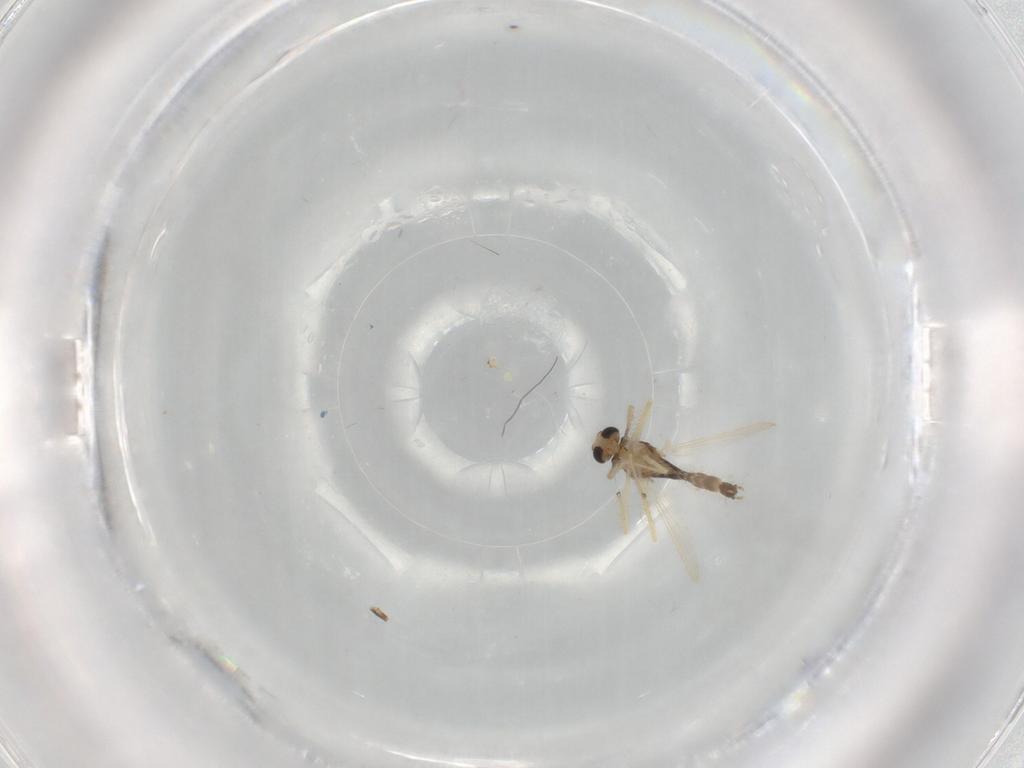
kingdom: Animalia
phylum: Arthropoda
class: Insecta
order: Diptera
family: Chironomidae
